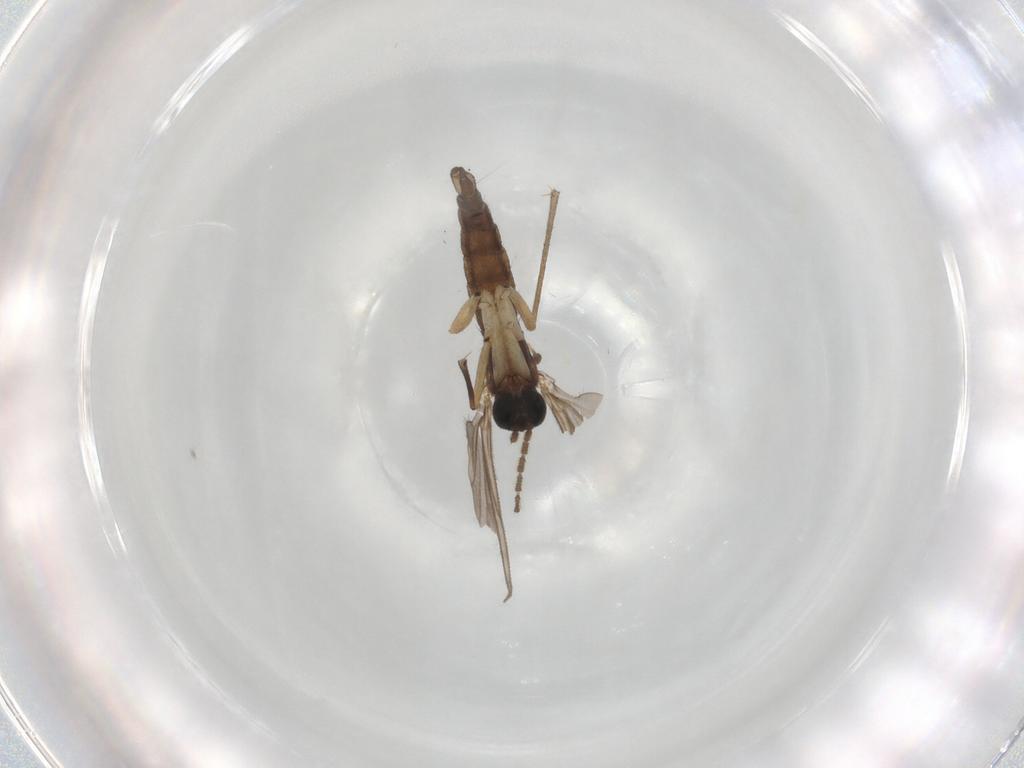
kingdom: Animalia
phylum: Arthropoda
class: Insecta
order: Diptera
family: Sciaridae
